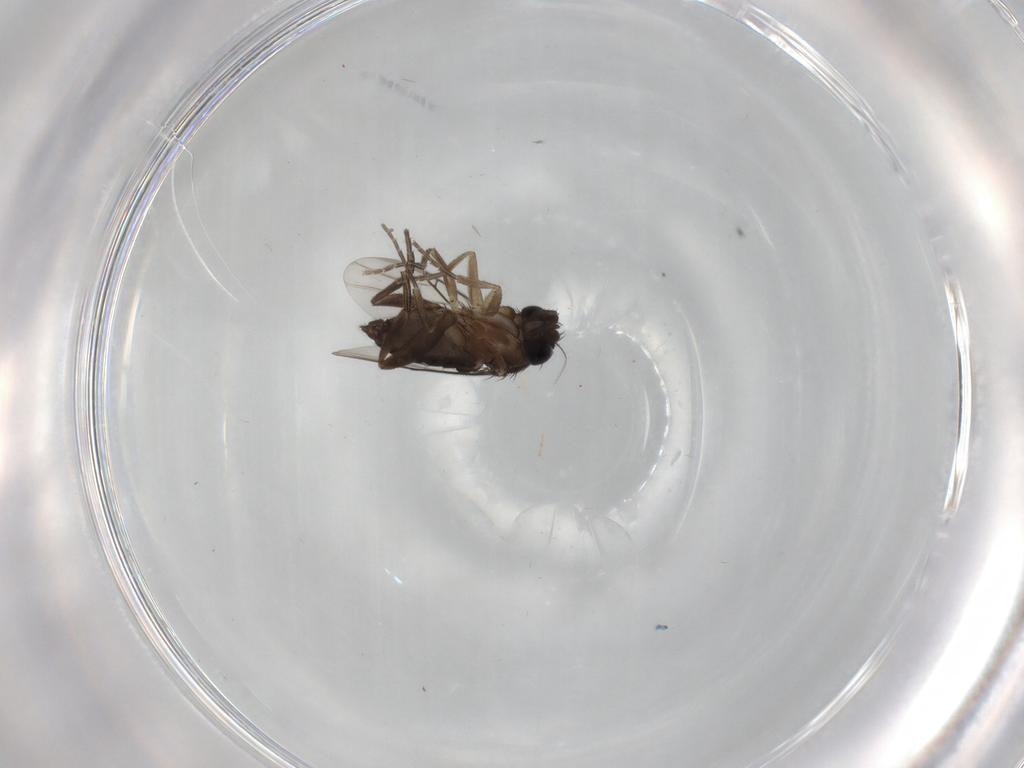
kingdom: Animalia
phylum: Arthropoda
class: Insecta
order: Diptera
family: Phoridae
